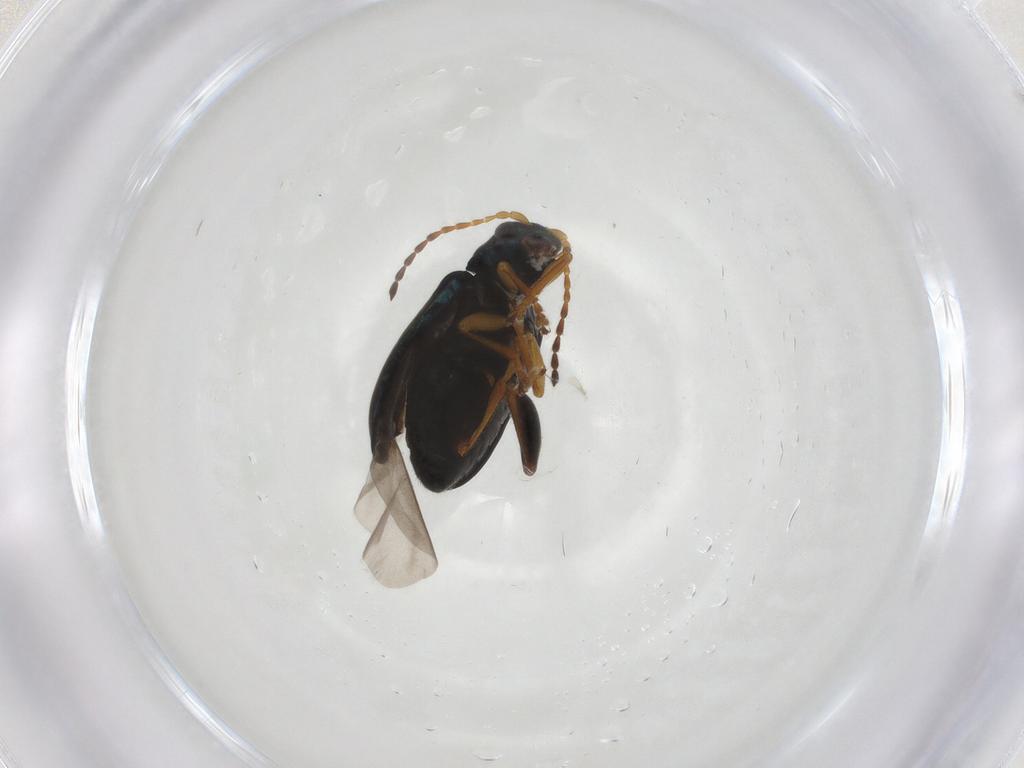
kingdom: Animalia
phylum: Arthropoda
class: Insecta
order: Coleoptera
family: Chrysomelidae
